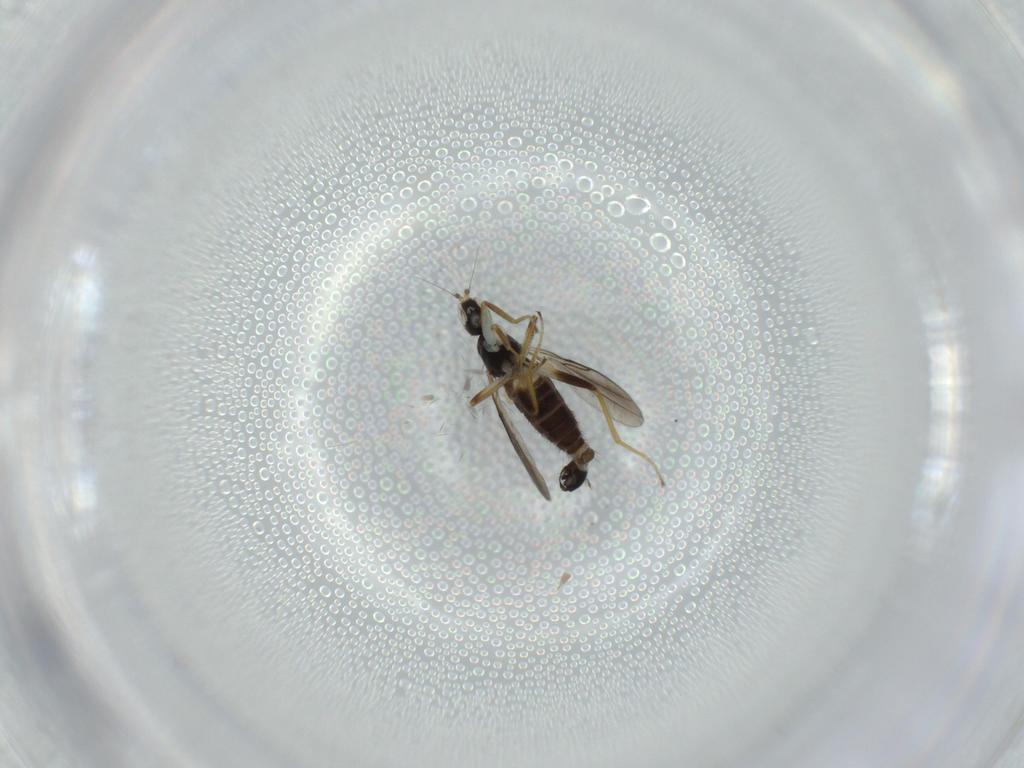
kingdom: Animalia
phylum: Arthropoda
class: Insecta
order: Diptera
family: Hybotidae
